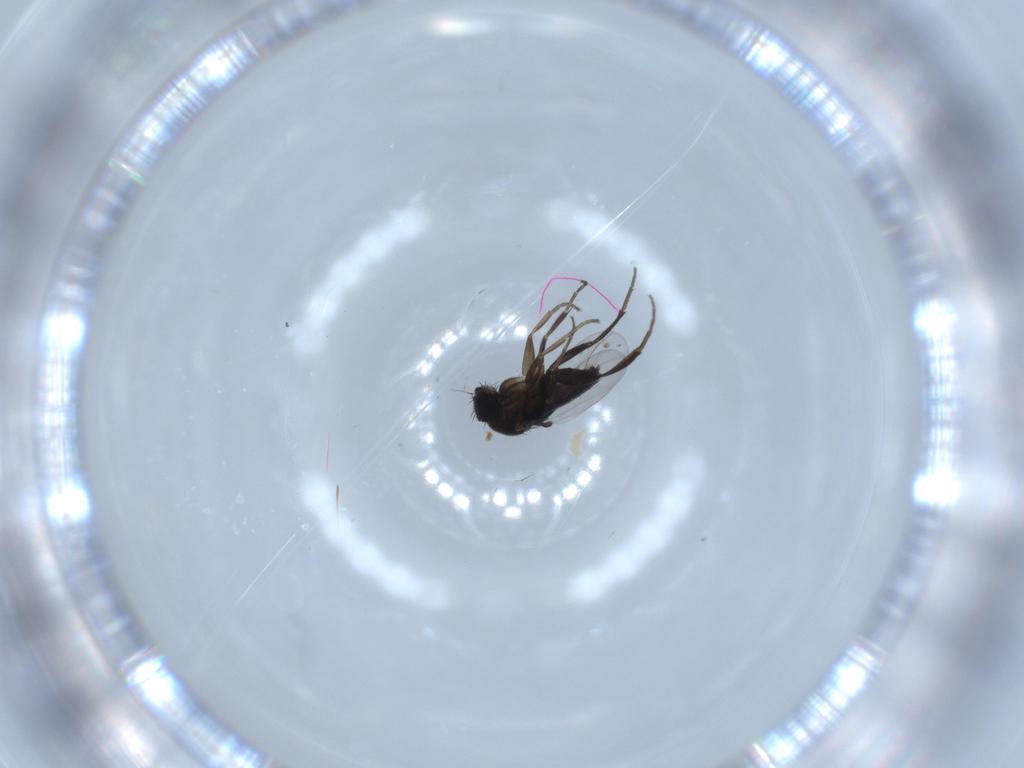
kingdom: Animalia
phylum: Arthropoda
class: Insecta
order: Diptera
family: Phoridae
